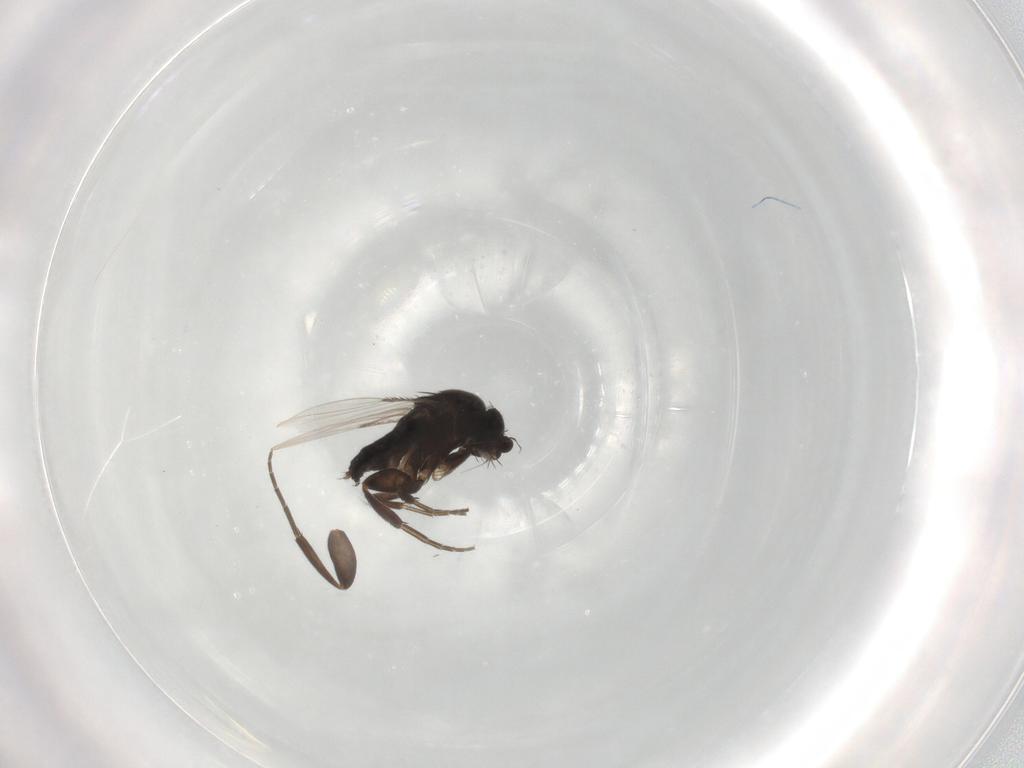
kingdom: Animalia
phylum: Arthropoda
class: Insecta
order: Diptera
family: Phoridae
